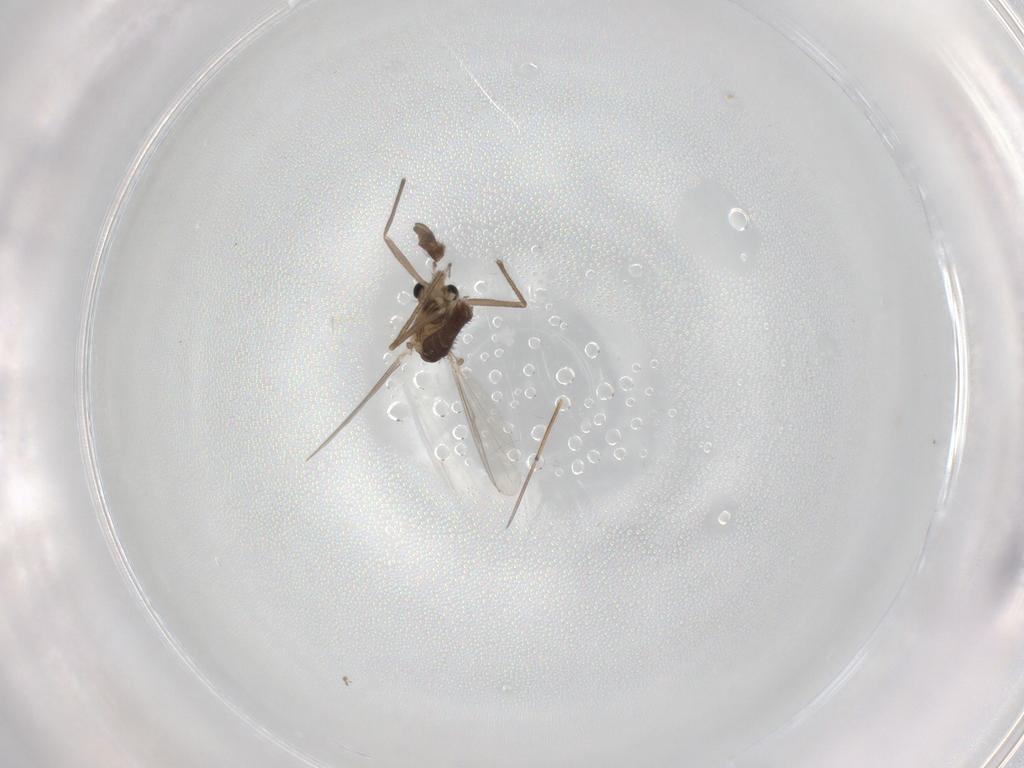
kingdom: Animalia
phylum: Arthropoda
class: Insecta
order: Diptera
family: Chironomidae
